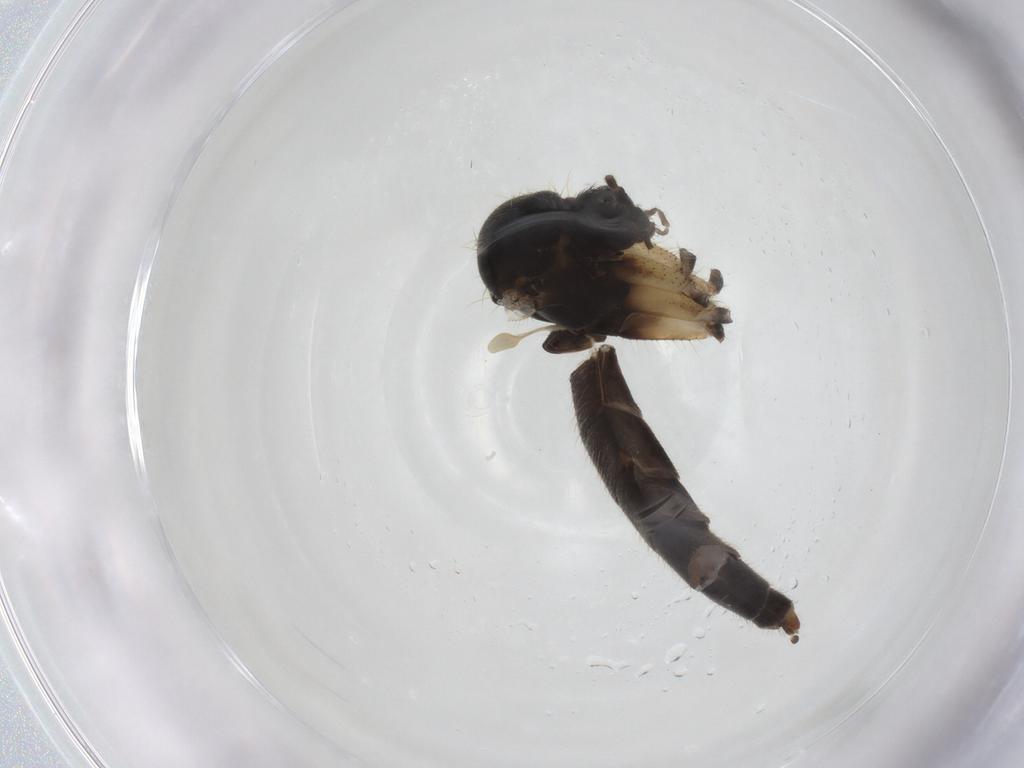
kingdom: Animalia
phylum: Arthropoda
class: Insecta
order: Diptera
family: Mycetophilidae
